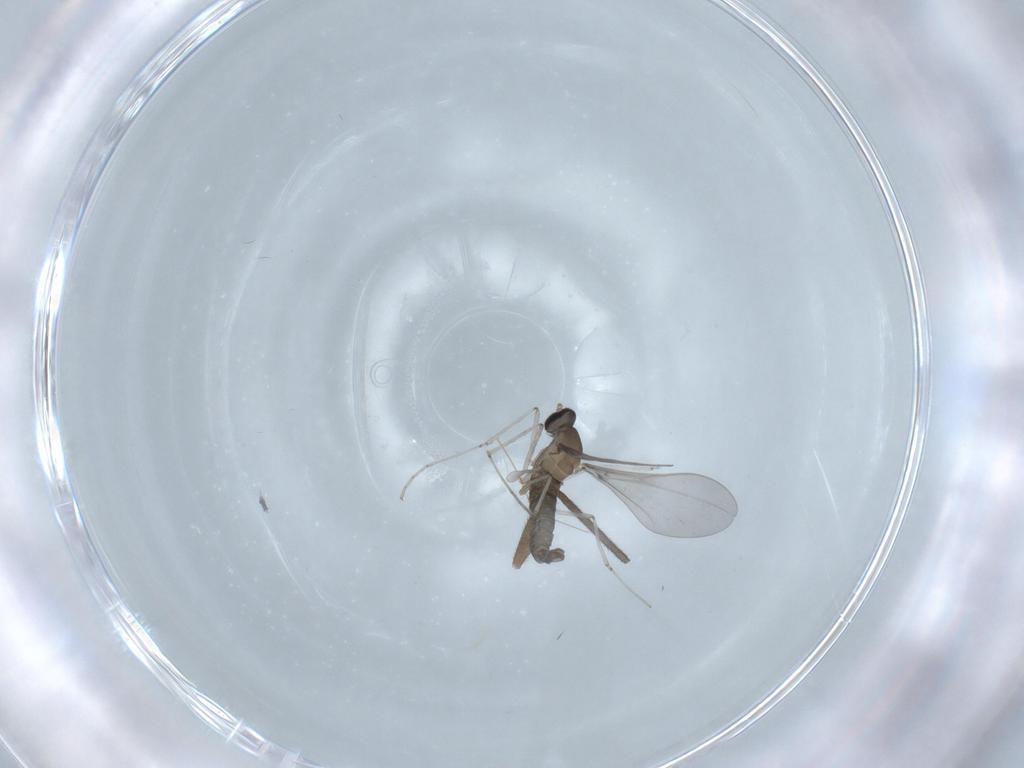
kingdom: Animalia
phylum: Arthropoda
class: Insecta
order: Diptera
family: Cecidomyiidae
